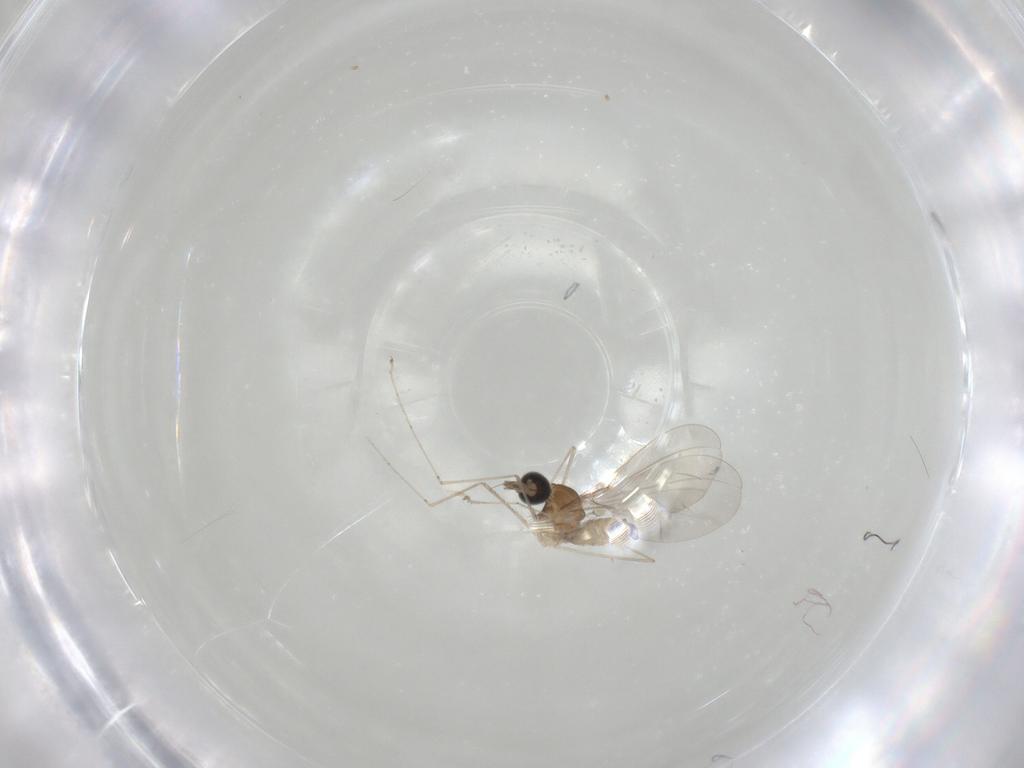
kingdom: Animalia
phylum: Arthropoda
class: Insecta
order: Diptera
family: Cecidomyiidae
